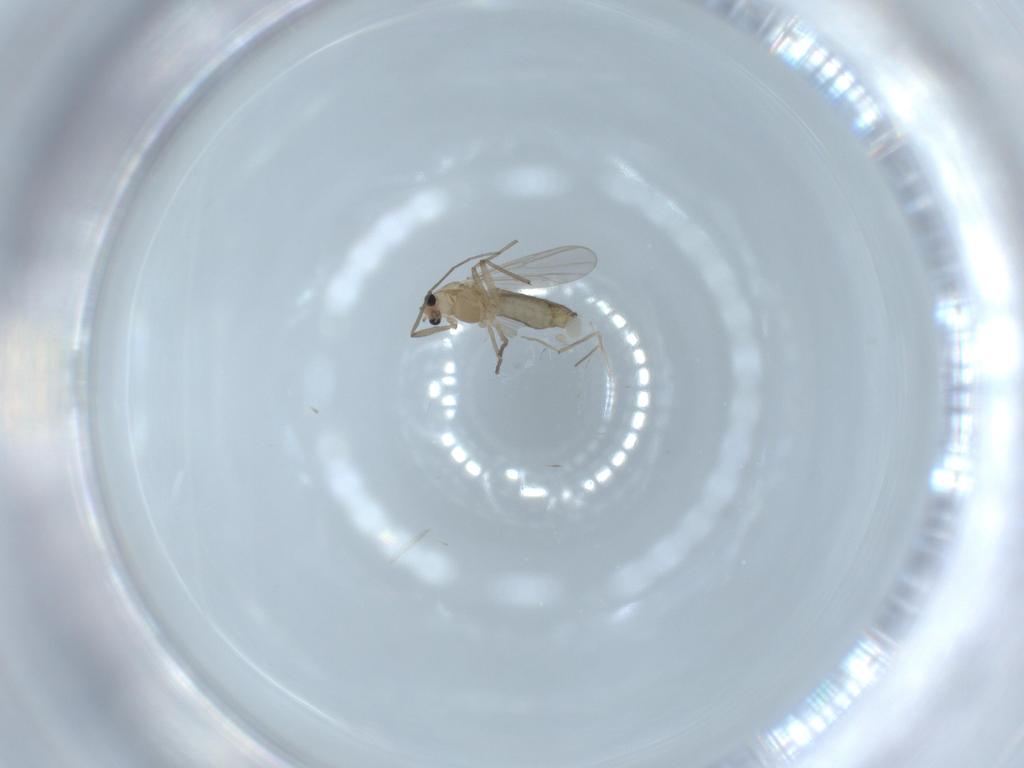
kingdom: Animalia
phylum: Arthropoda
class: Insecta
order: Diptera
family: Chironomidae
